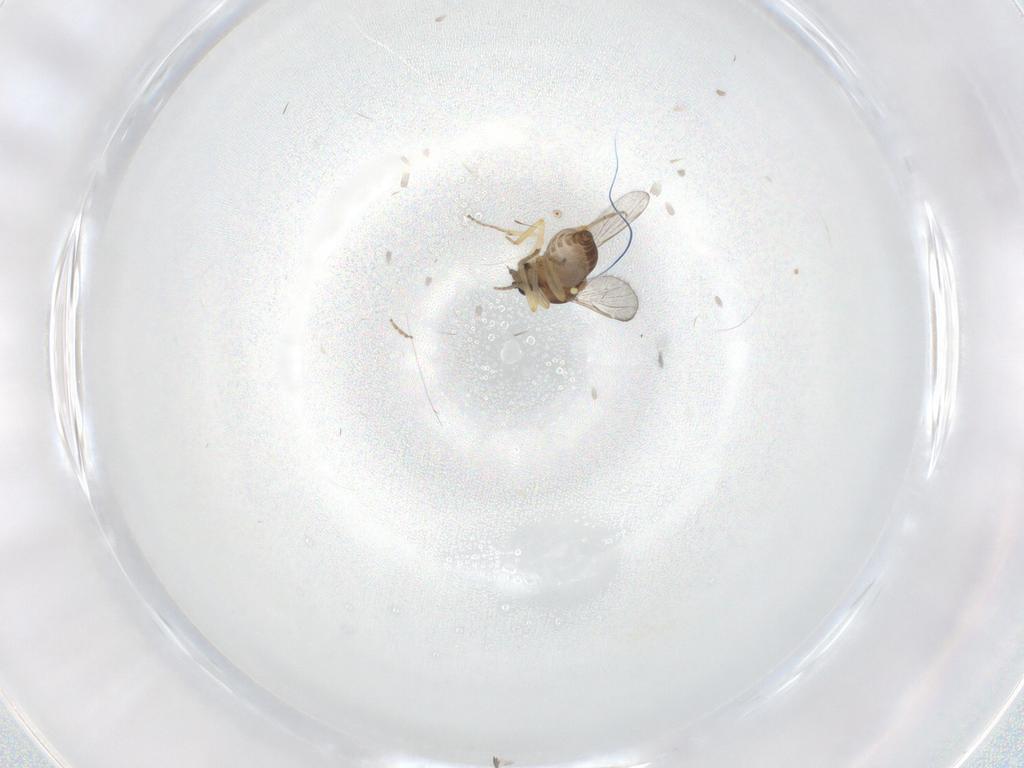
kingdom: Animalia
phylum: Arthropoda
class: Insecta
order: Diptera
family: Ceratopogonidae
